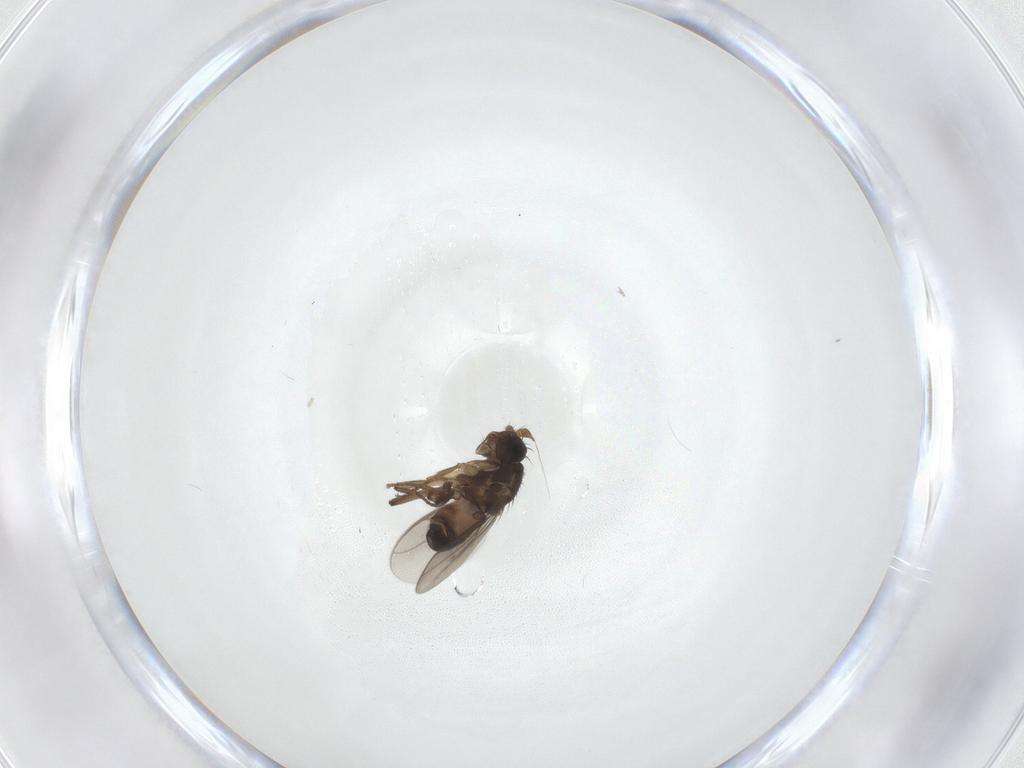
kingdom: Animalia
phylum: Arthropoda
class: Insecta
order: Diptera
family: Sphaeroceridae
